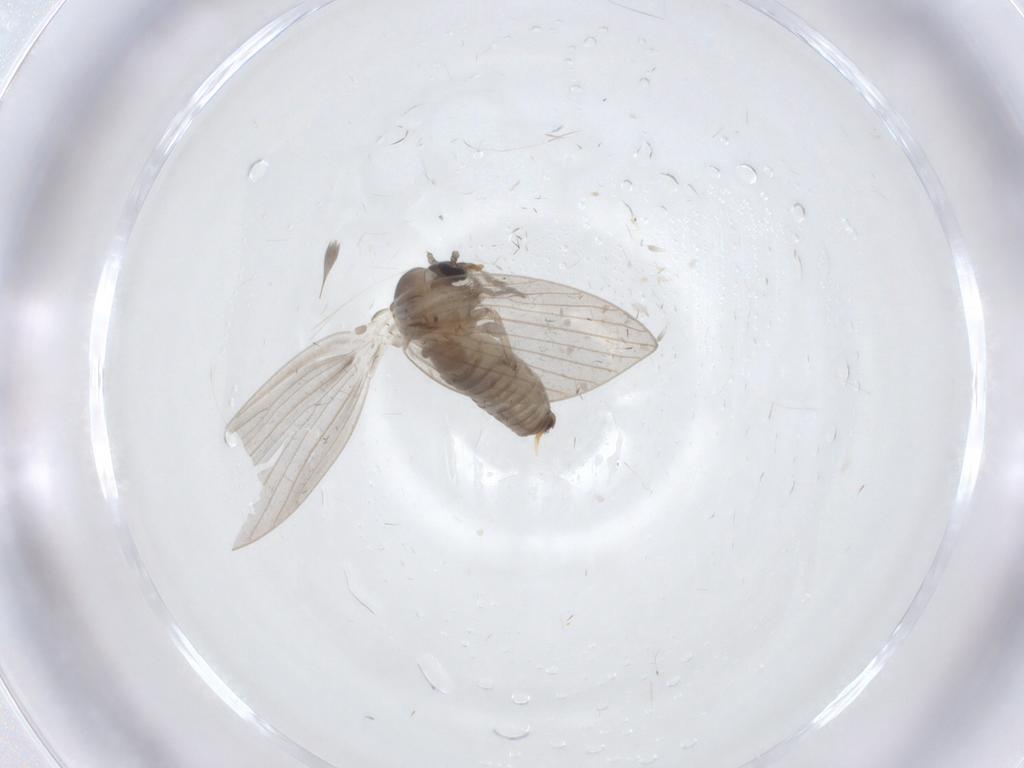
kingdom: Animalia
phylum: Arthropoda
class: Insecta
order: Diptera
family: Psychodidae
